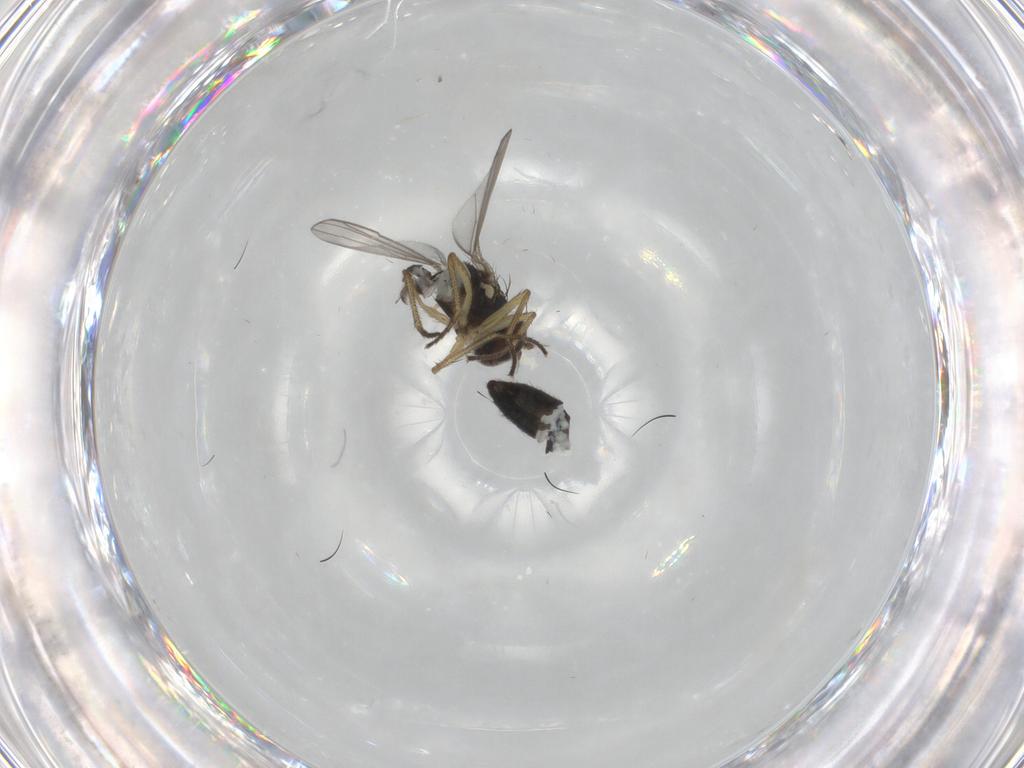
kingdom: Animalia
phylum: Arthropoda
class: Insecta
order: Diptera
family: Dolichopodidae
